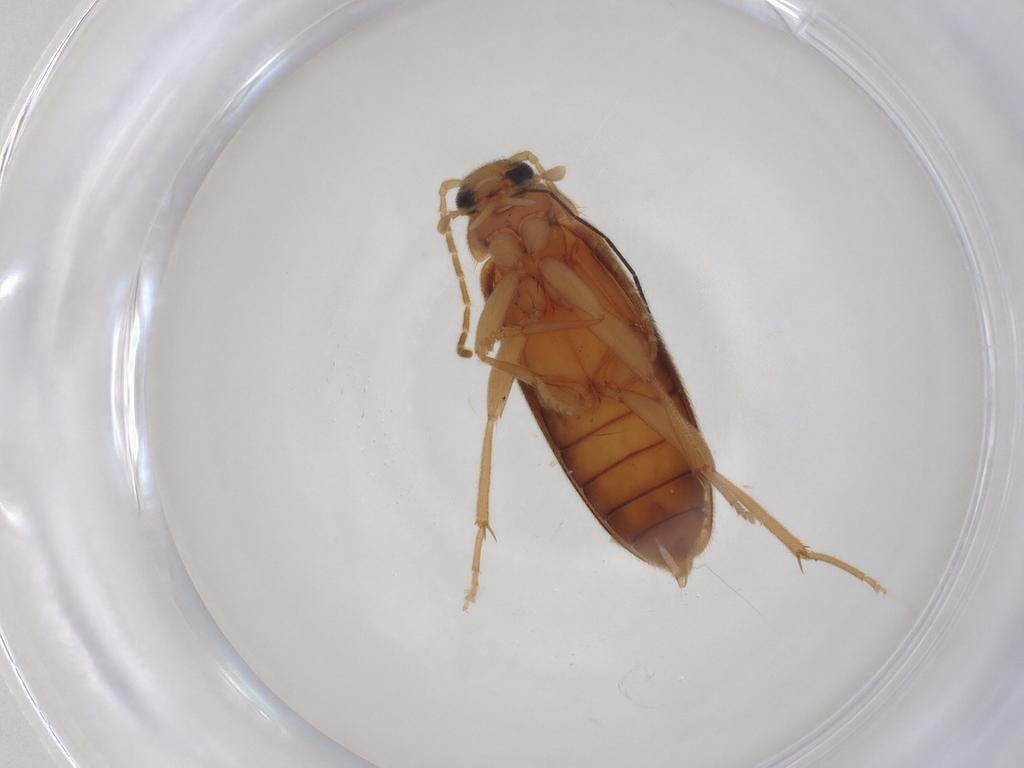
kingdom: Animalia
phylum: Arthropoda
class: Insecta
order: Coleoptera
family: Scraptiidae
